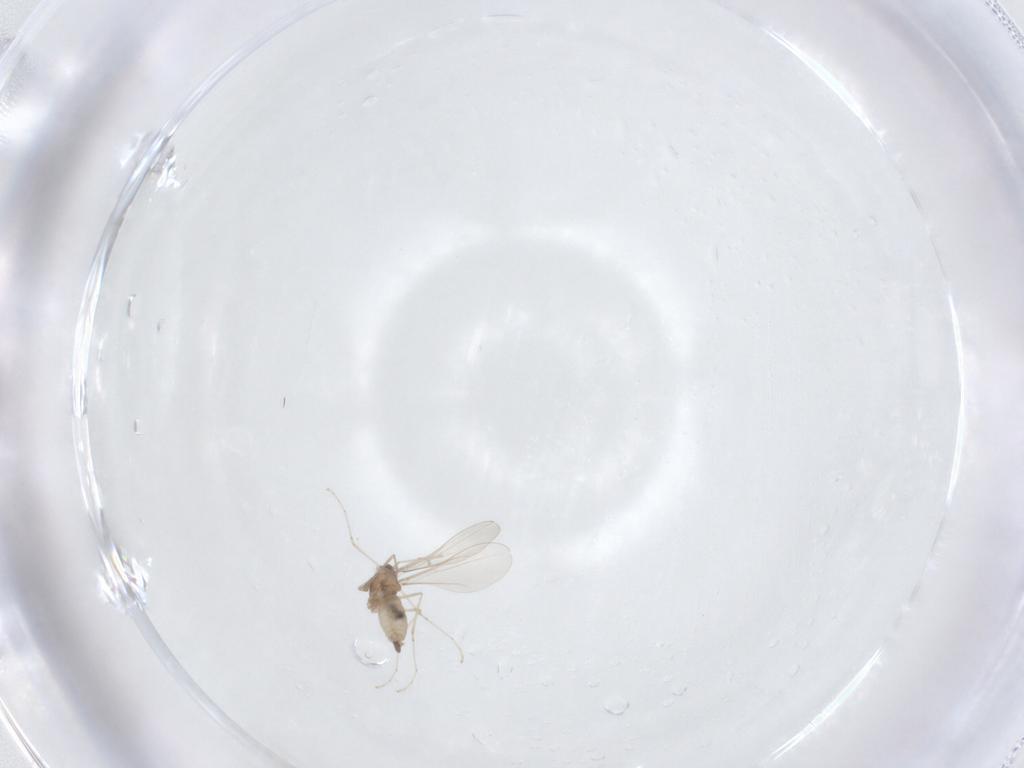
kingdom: Animalia
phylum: Arthropoda
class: Insecta
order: Diptera
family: Cecidomyiidae
